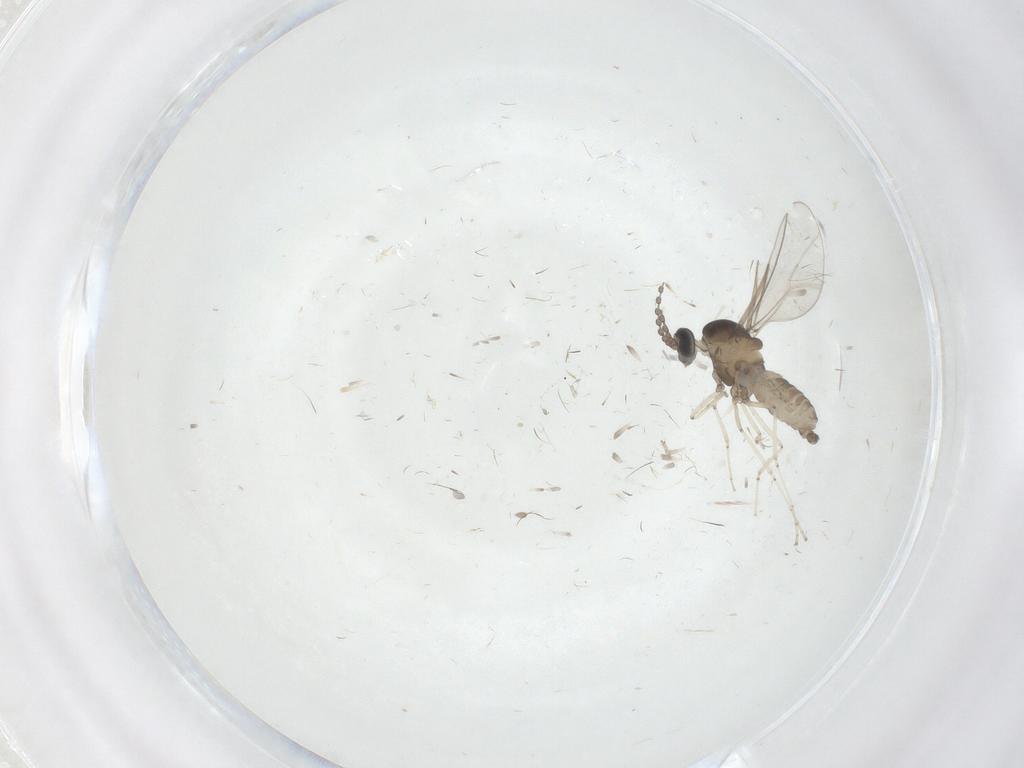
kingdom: Animalia
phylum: Arthropoda
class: Insecta
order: Diptera
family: Cecidomyiidae
